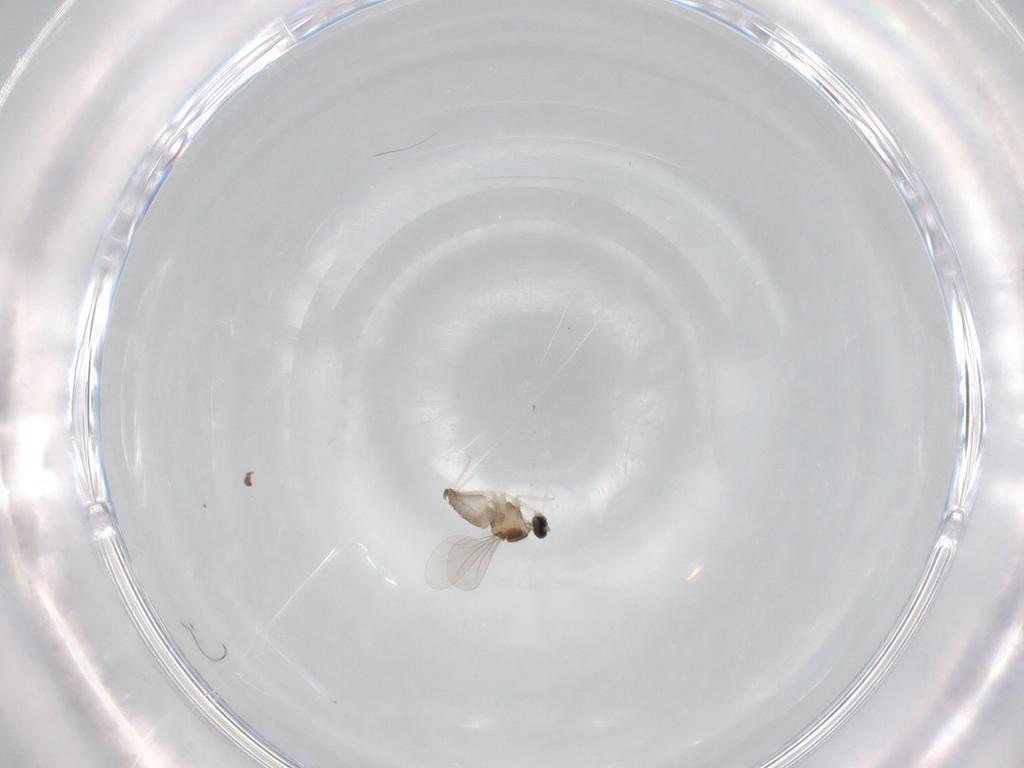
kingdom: Animalia
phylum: Arthropoda
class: Insecta
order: Diptera
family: Cecidomyiidae
